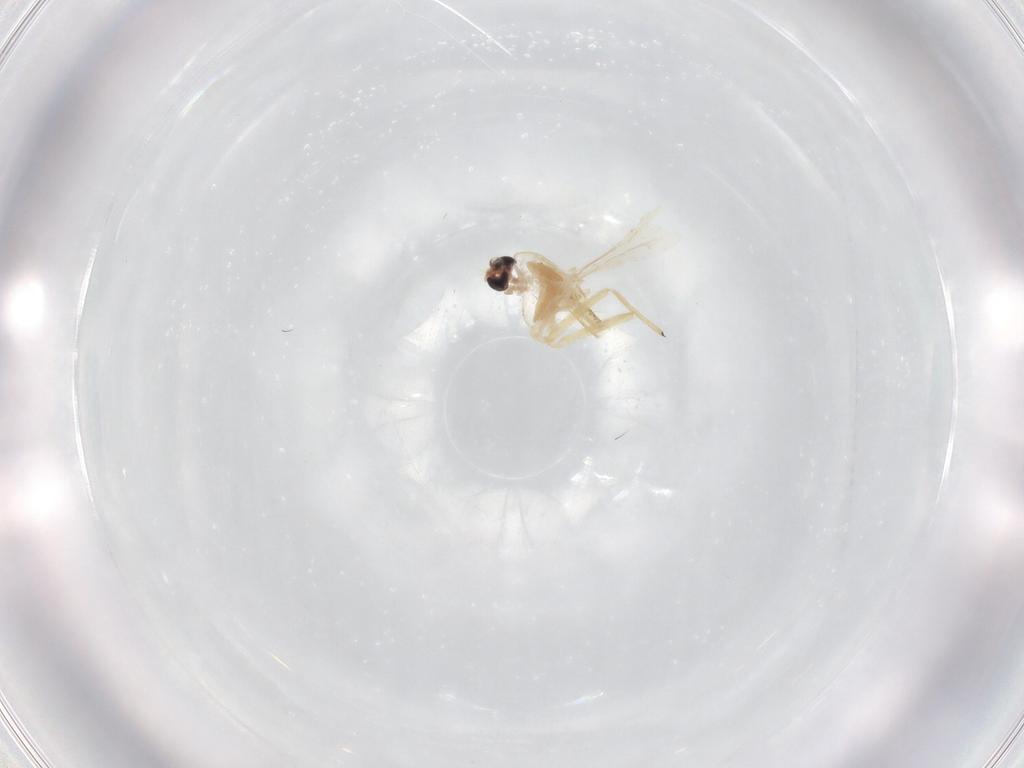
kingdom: Animalia
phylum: Arthropoda
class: Insecta
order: Diptera
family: Chironomidae
